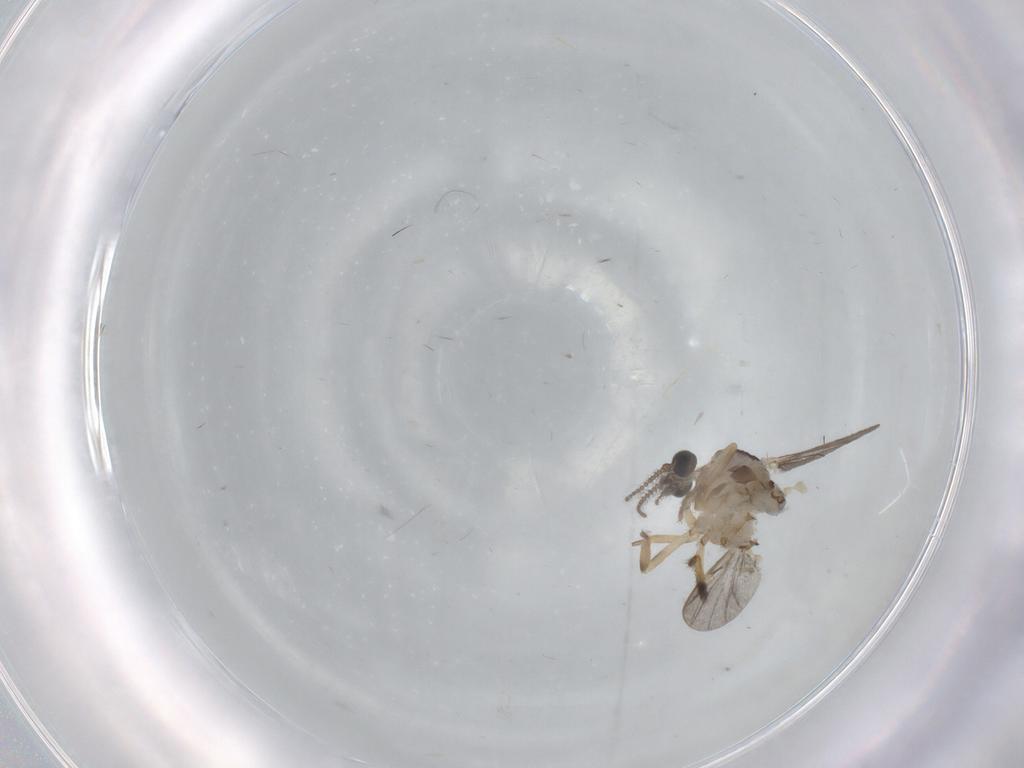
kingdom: Animalia
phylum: Arthropoda
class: Insecta
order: Diptera
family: Ceratopogonidae
